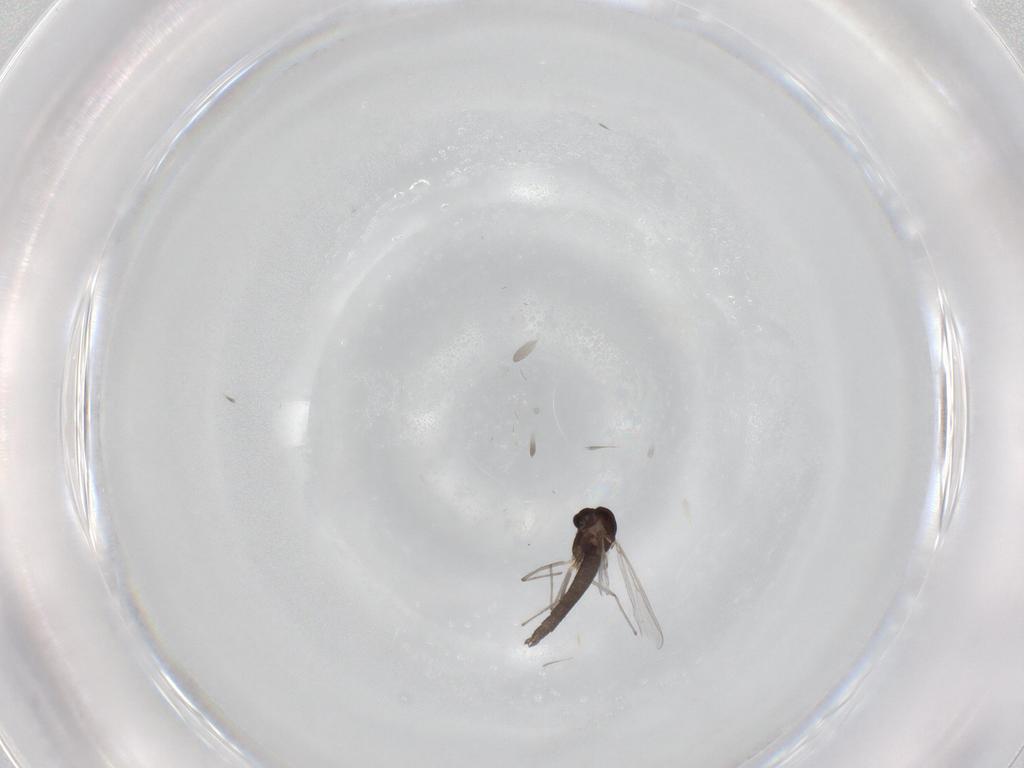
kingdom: Animalia
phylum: Arthropoda
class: Insecta
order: Diptera
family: Chironomidae
